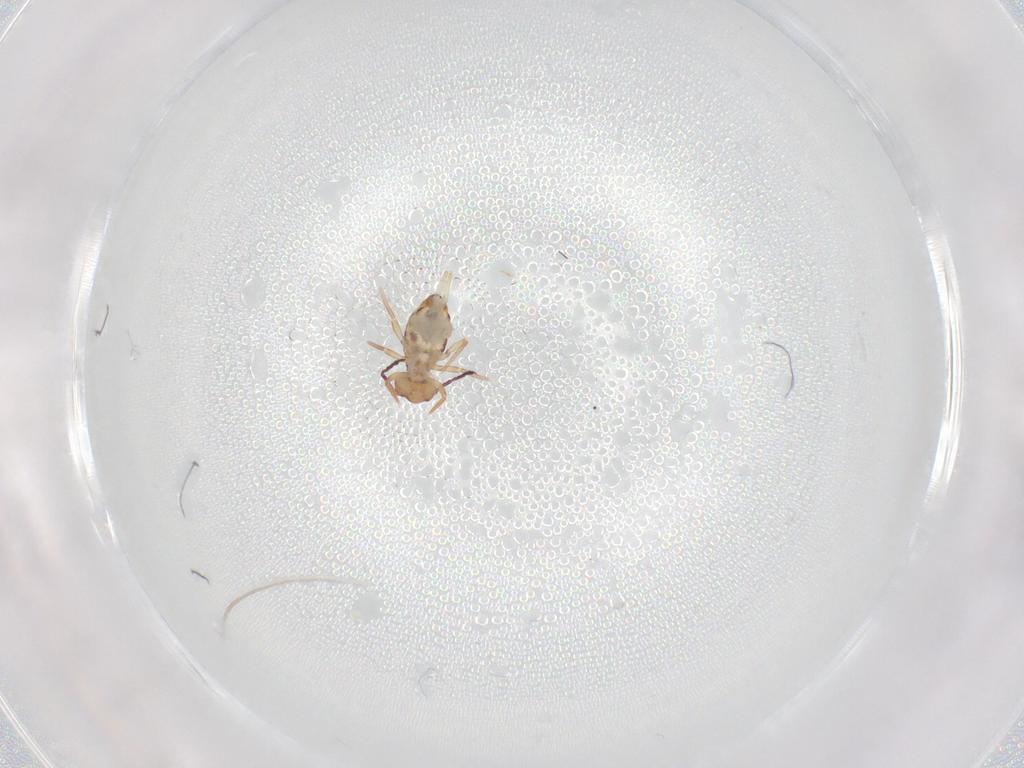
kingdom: Animalia
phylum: Arthropoda
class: Collembola
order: Symphypleona
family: Dicyrtomidae
